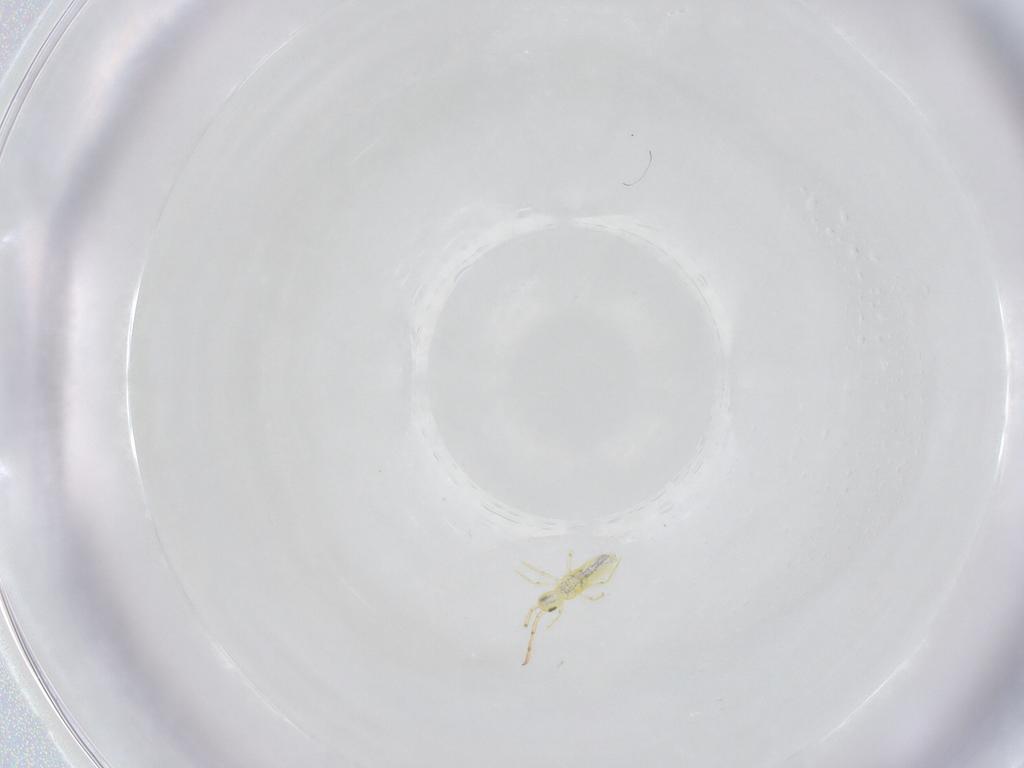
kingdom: Animalia
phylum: Arthropoda
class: Collembola
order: Entomobryomorpha
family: Entomobryidae
